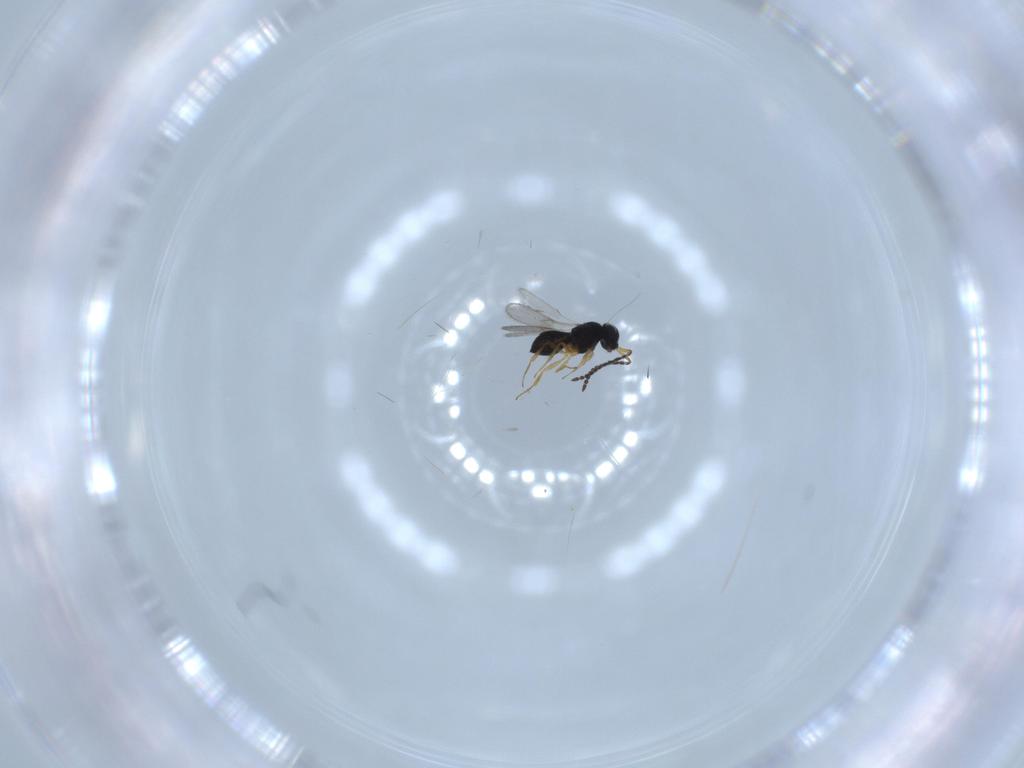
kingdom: Animalia
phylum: Arthropoda
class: Insecta
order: Hymenoptera
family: Scelionidae
